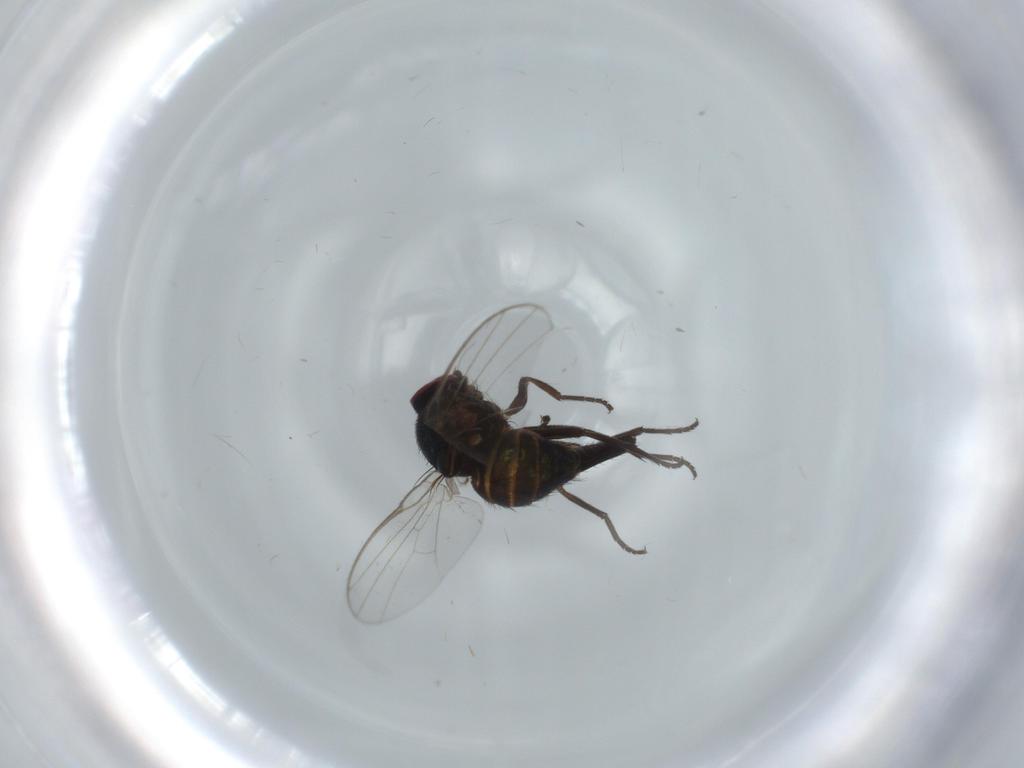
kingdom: Animalia
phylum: Arthropoda
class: Insecta
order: Diptera
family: Agromyzidae
